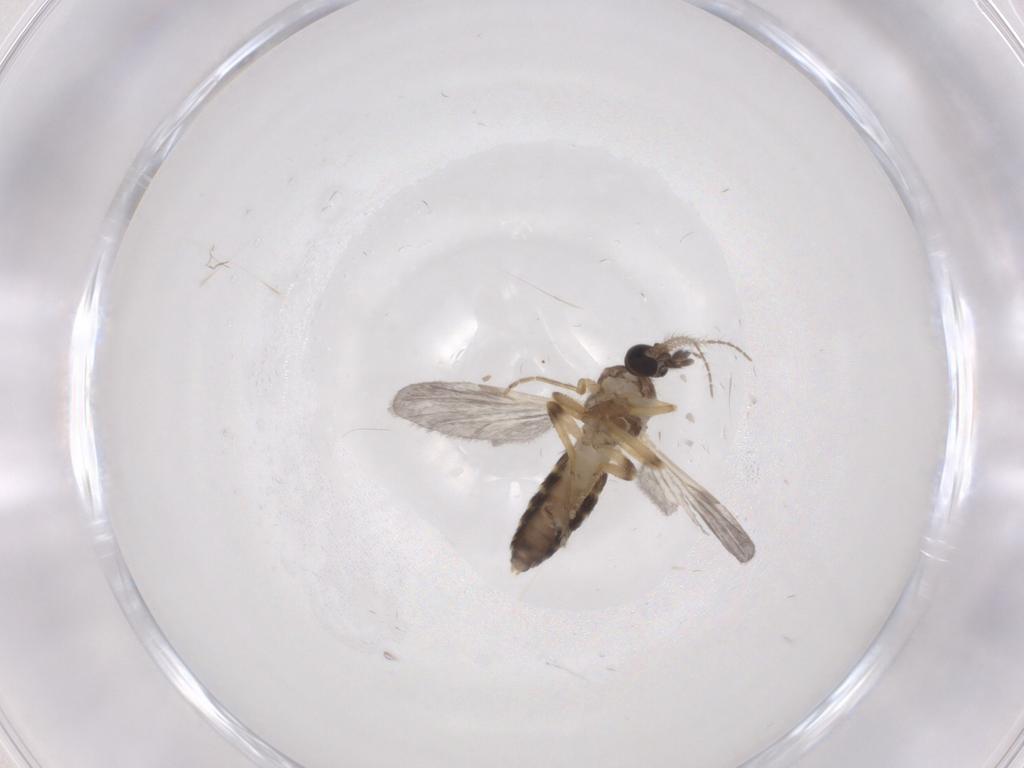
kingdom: Animalia
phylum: Arthropoda
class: Insecta
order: Diptera
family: Ceratopogonidae
